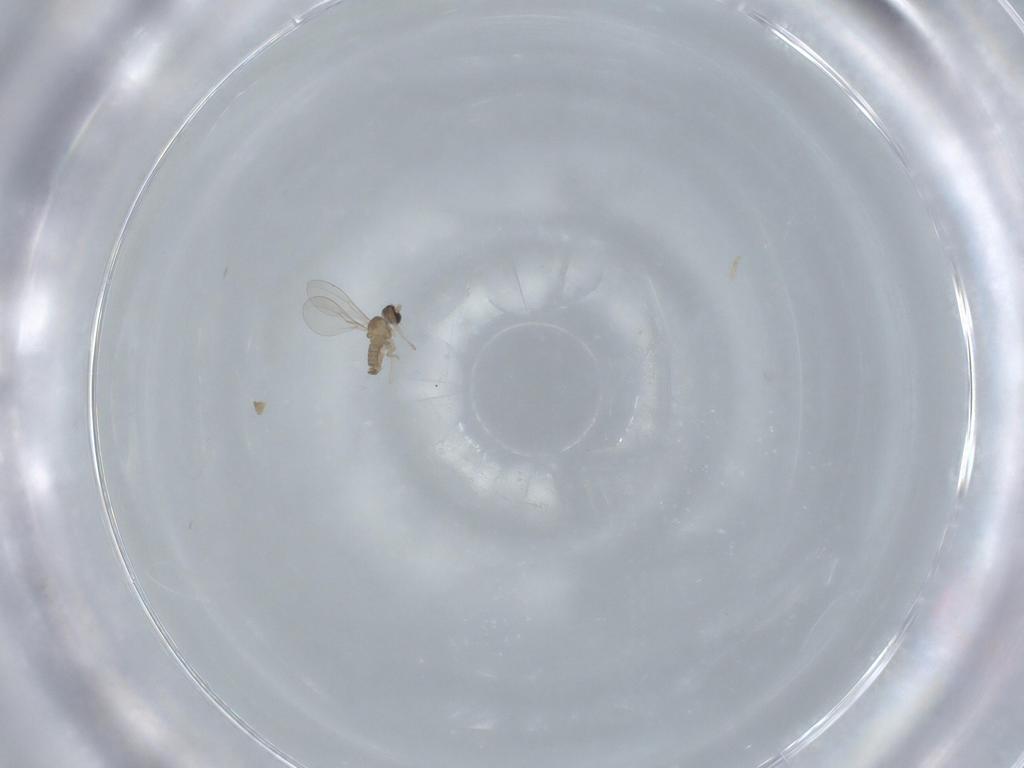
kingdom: Animalia
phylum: Arthropoda
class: Insecta
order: Diptera
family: Cecidomyiidae
